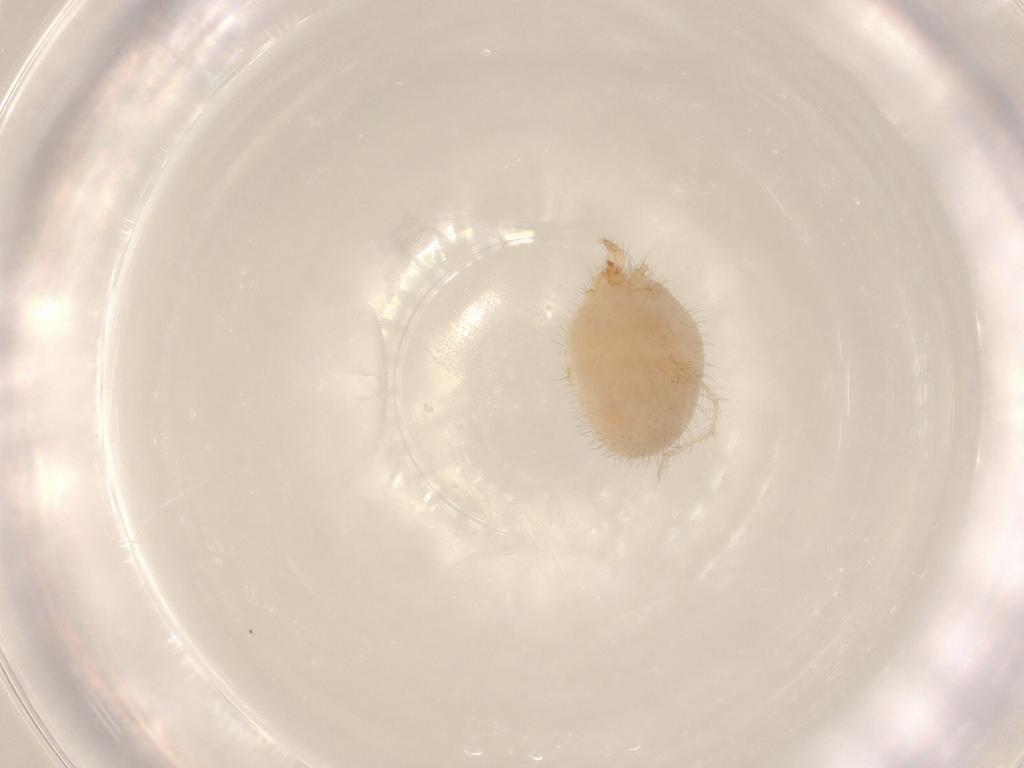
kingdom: Animalia
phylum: Arthropoda
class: Arachnida
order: Trombidiformes
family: Erythraeidae
